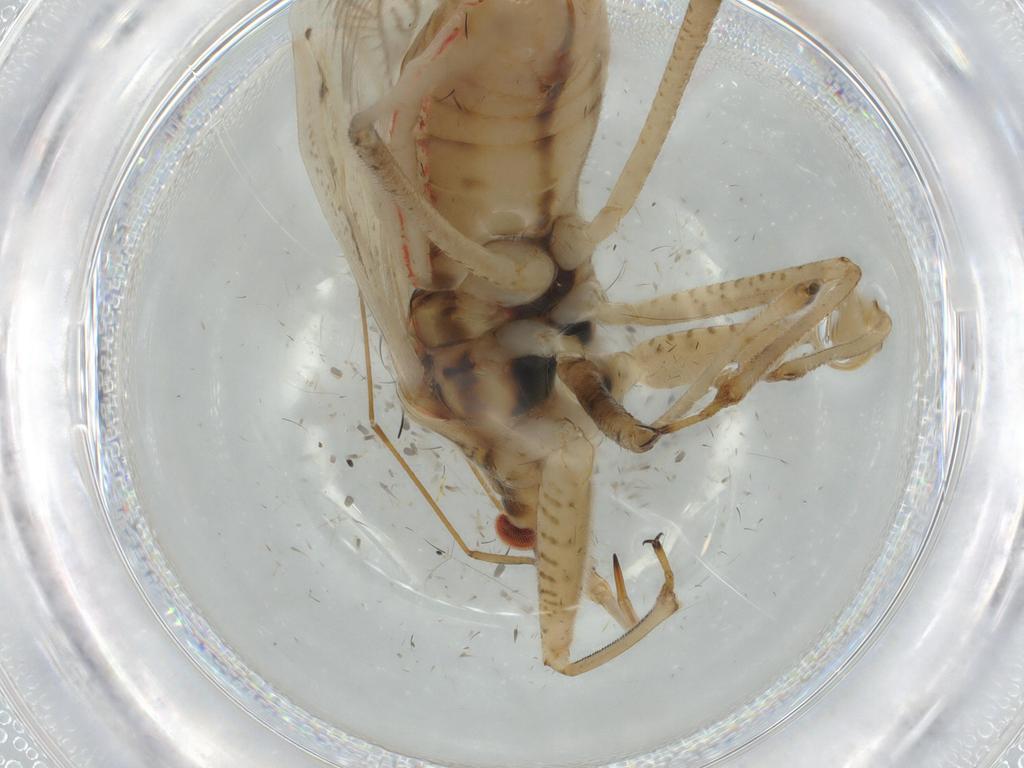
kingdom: Animalia
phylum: Arthropoda
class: Insecta
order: Hemiptera
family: Nabidae
